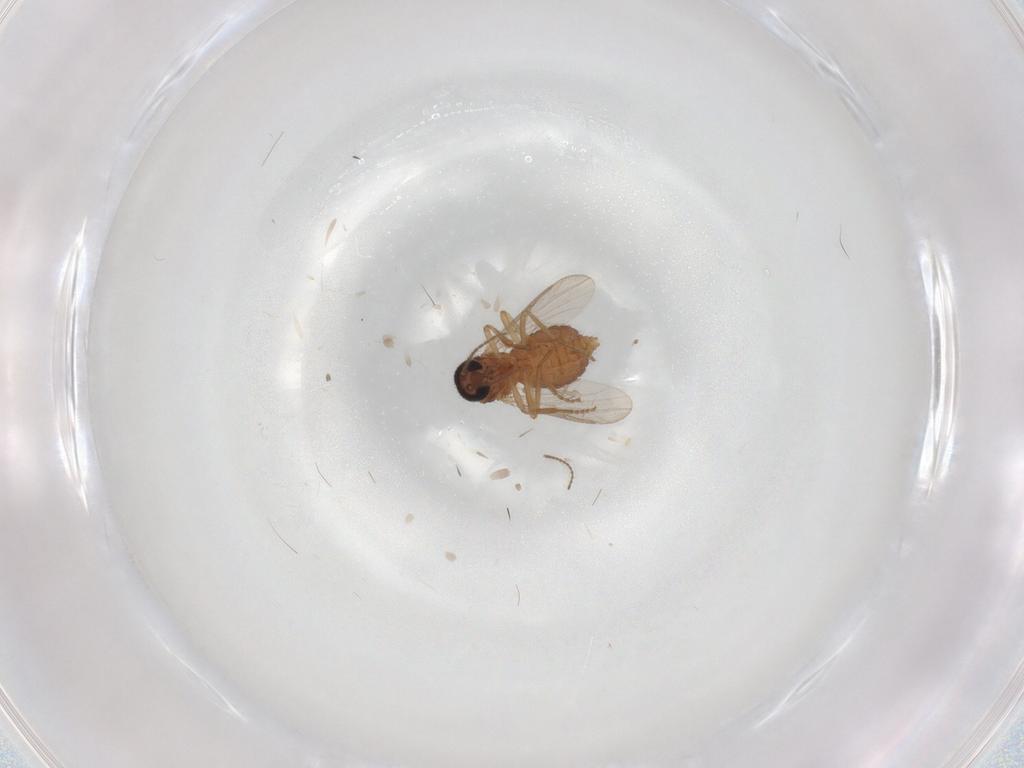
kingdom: Animalia
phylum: Arthropoda
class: Insecta
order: Diptera
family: Ceratopogonidae
